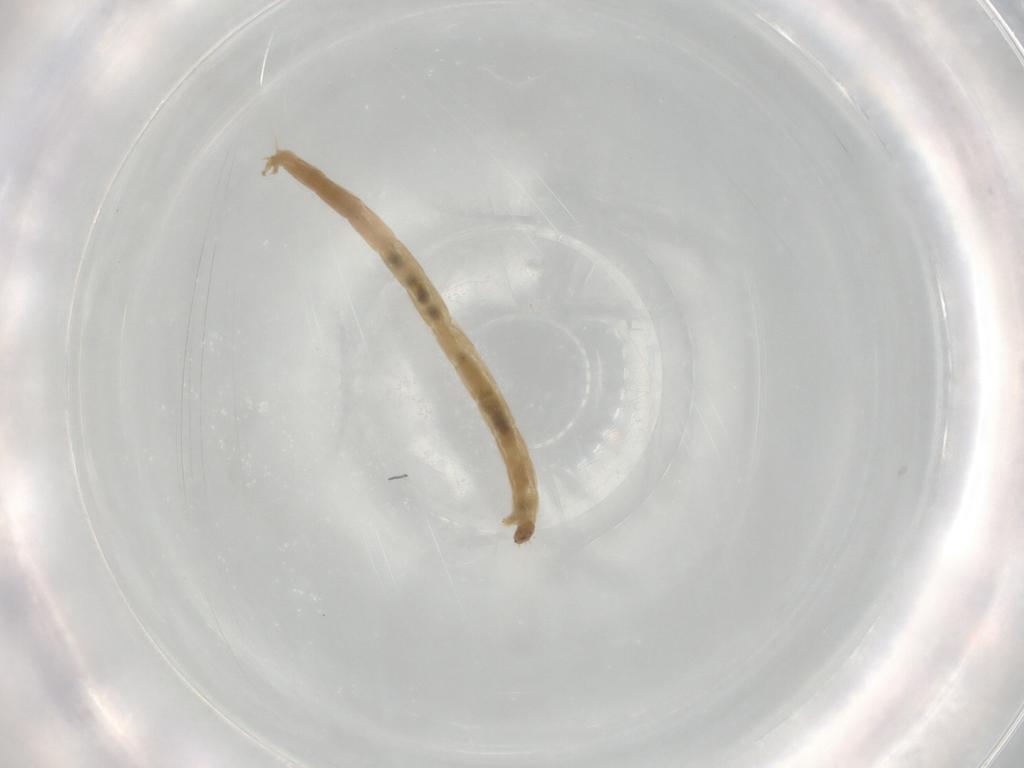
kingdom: Animalia
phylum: Arthropoda
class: Insecta
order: Diptera
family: Chironomidae
